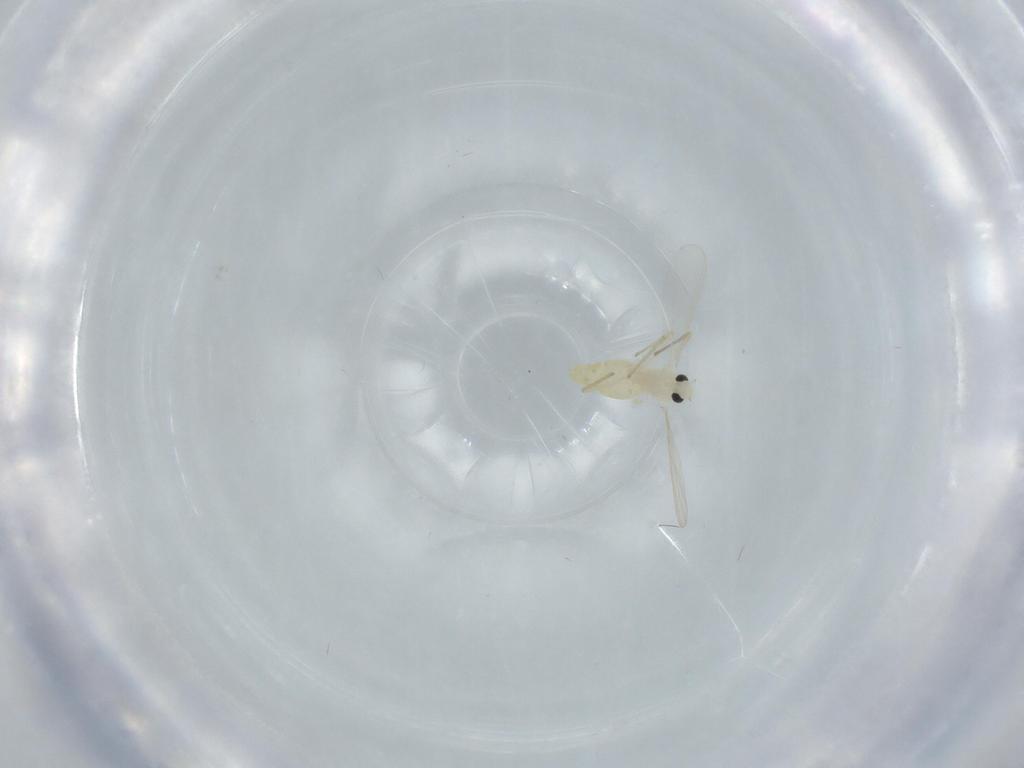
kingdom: Animalia
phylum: Arthropoda
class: Insecta
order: Diptera
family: Chironomidae
